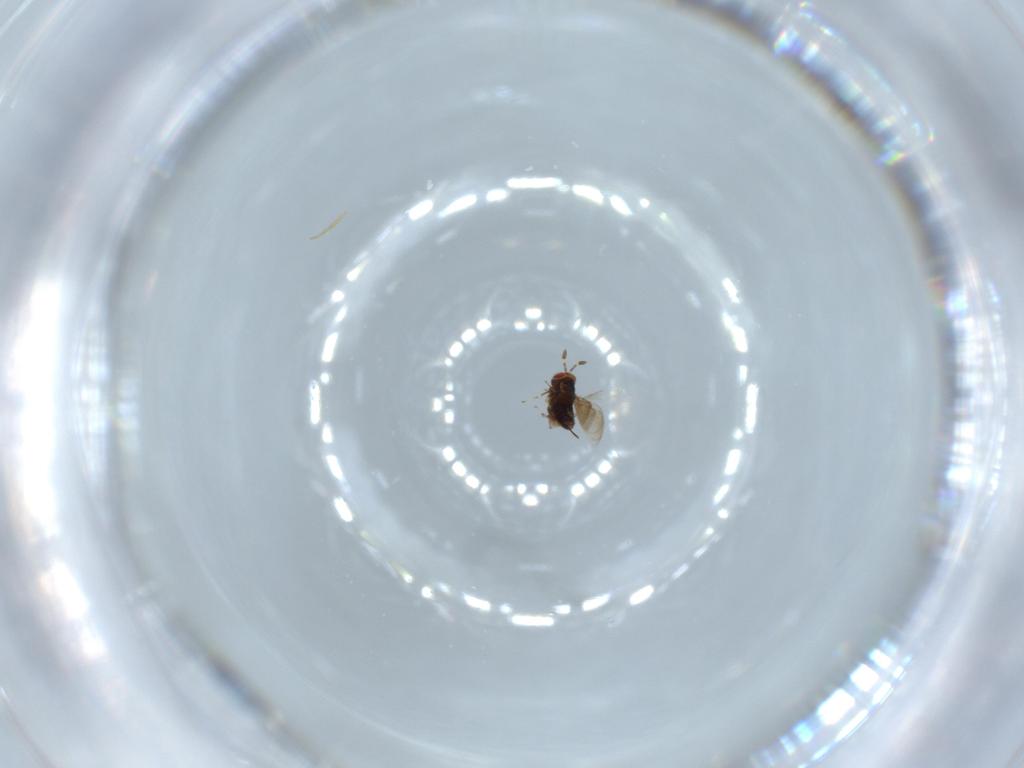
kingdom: Animalia
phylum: Arthropoda
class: Insecta
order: Hymenoptera
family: Azotidae
